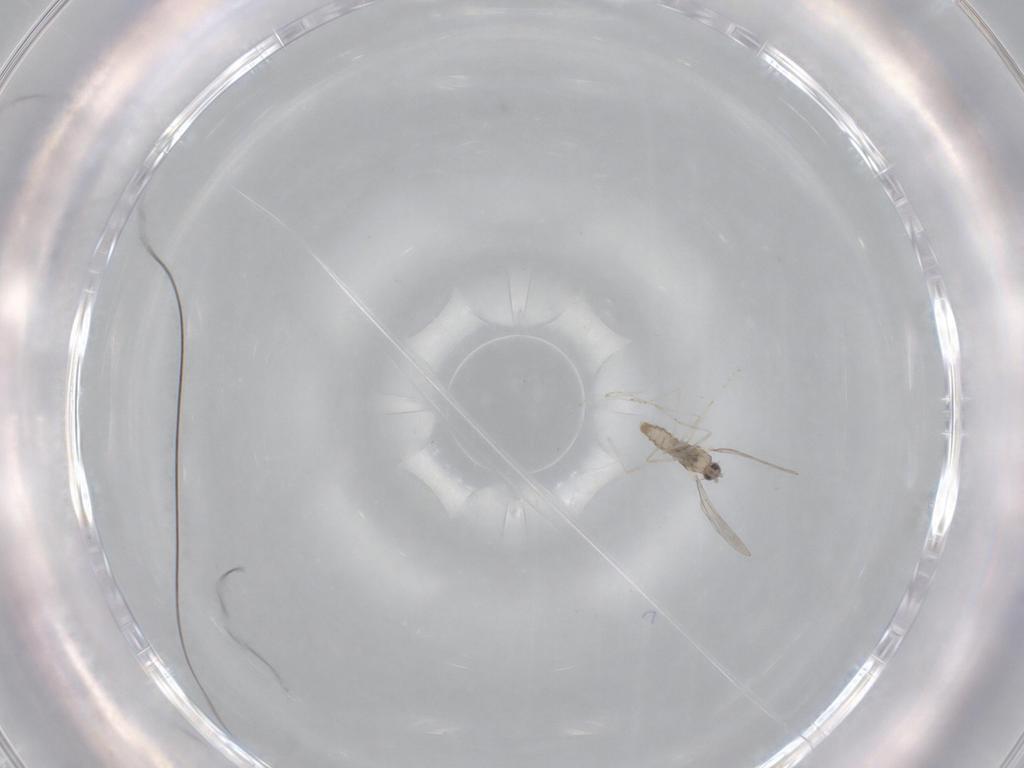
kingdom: Animalia
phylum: Arthropoda
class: Insecta
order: Diptera
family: Cecidomyiidae
